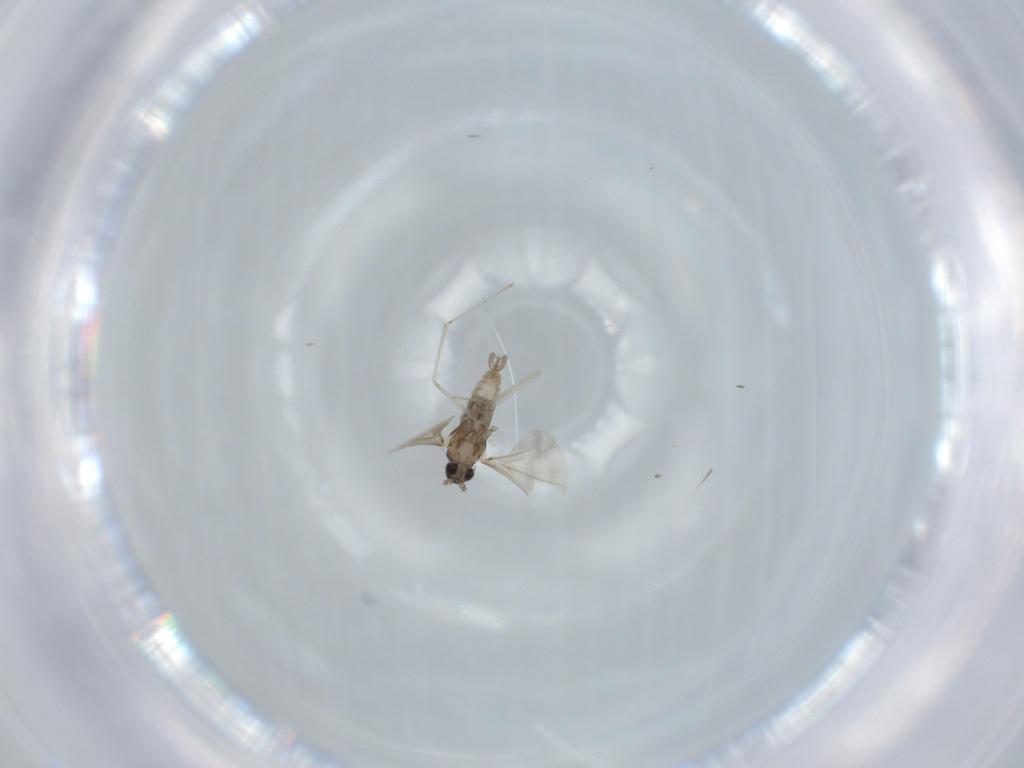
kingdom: Animalia
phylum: Arthropoda
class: Insecta
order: Diptera
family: Cecidomyiidae
